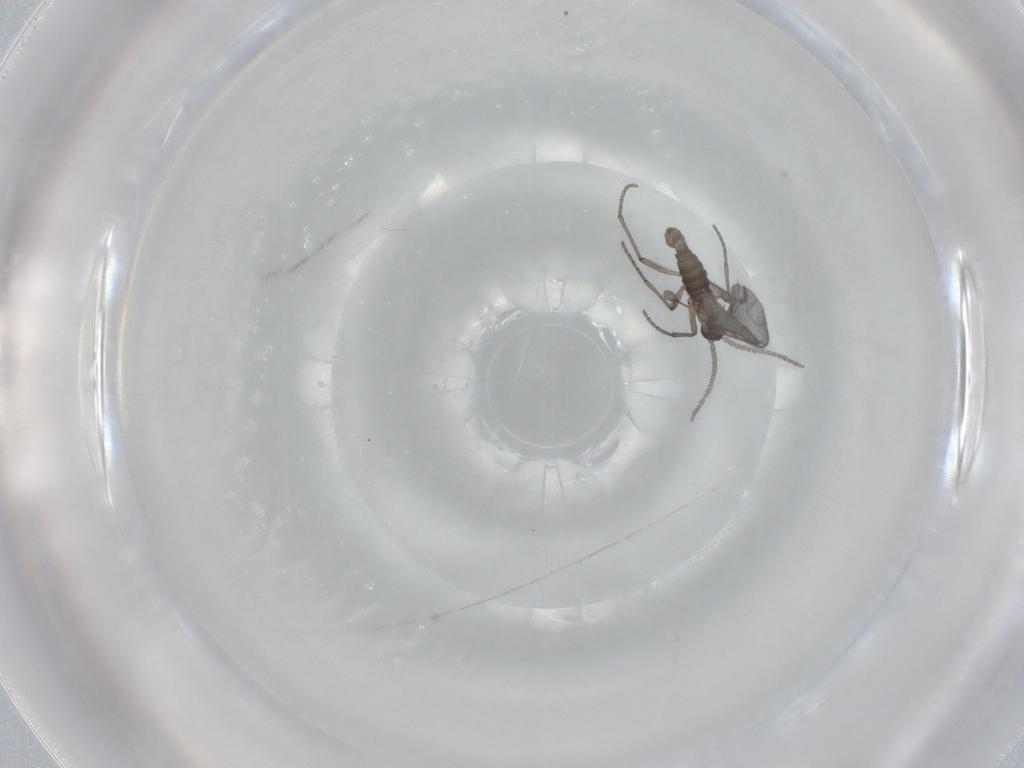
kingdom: Animalia
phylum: Arthropoda
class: Insecta
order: Diptera
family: Sciaridae
